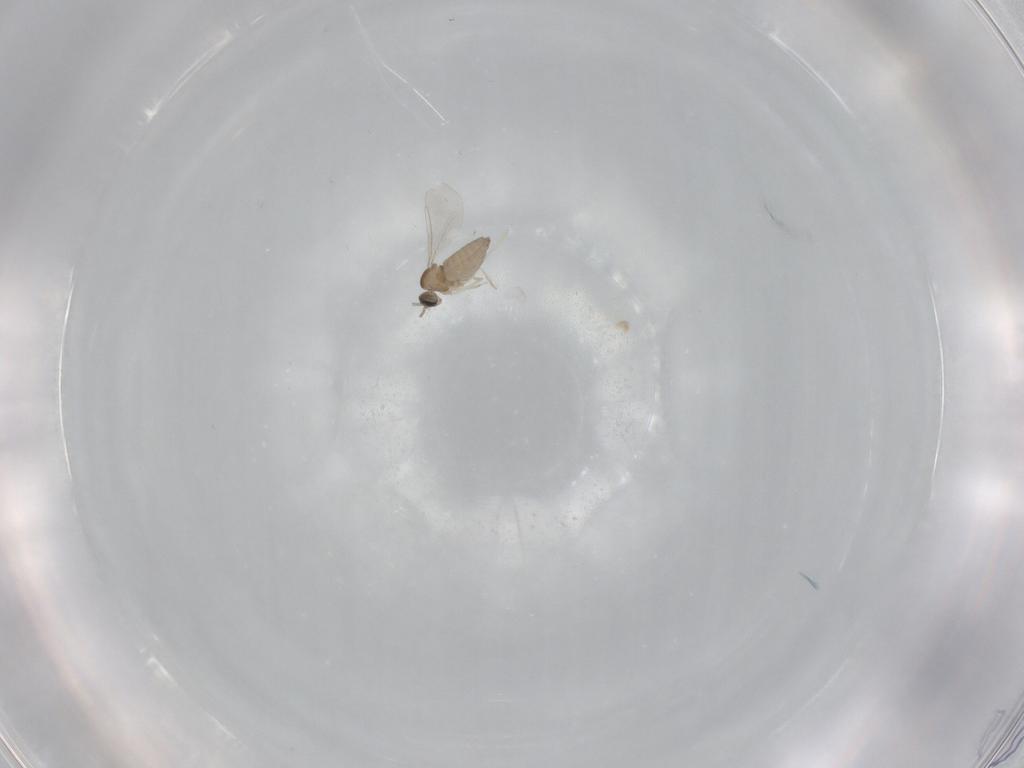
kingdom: Animalia
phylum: Arthropoda
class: Insecta
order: Diptera
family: Cecidomyiidae
